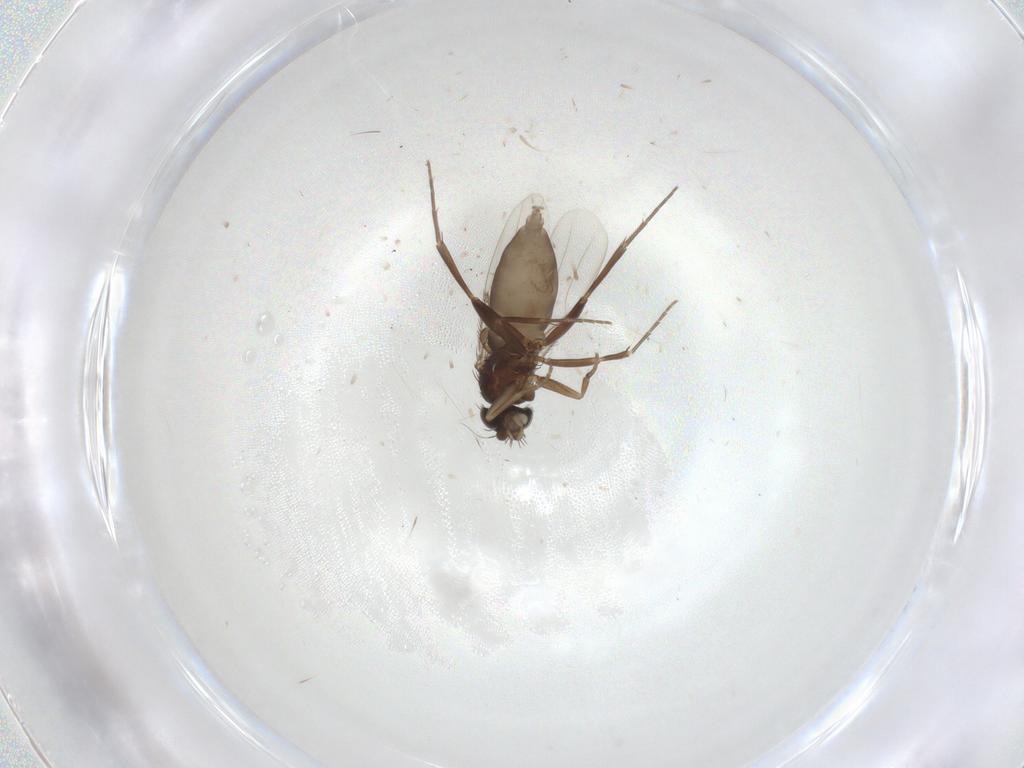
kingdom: Animalia
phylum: Arthropoda
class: Insecta
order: Diptera
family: Phoridae
